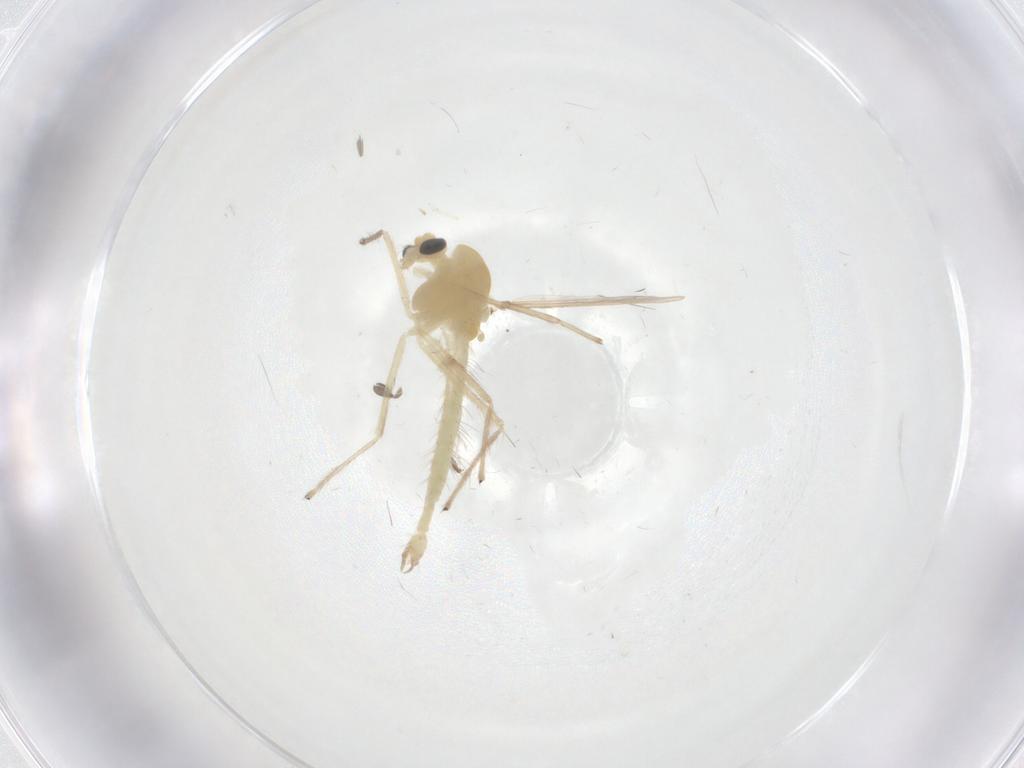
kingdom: Animalia
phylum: Arthropoda
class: Insecta
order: Diptera
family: Chironomidae
